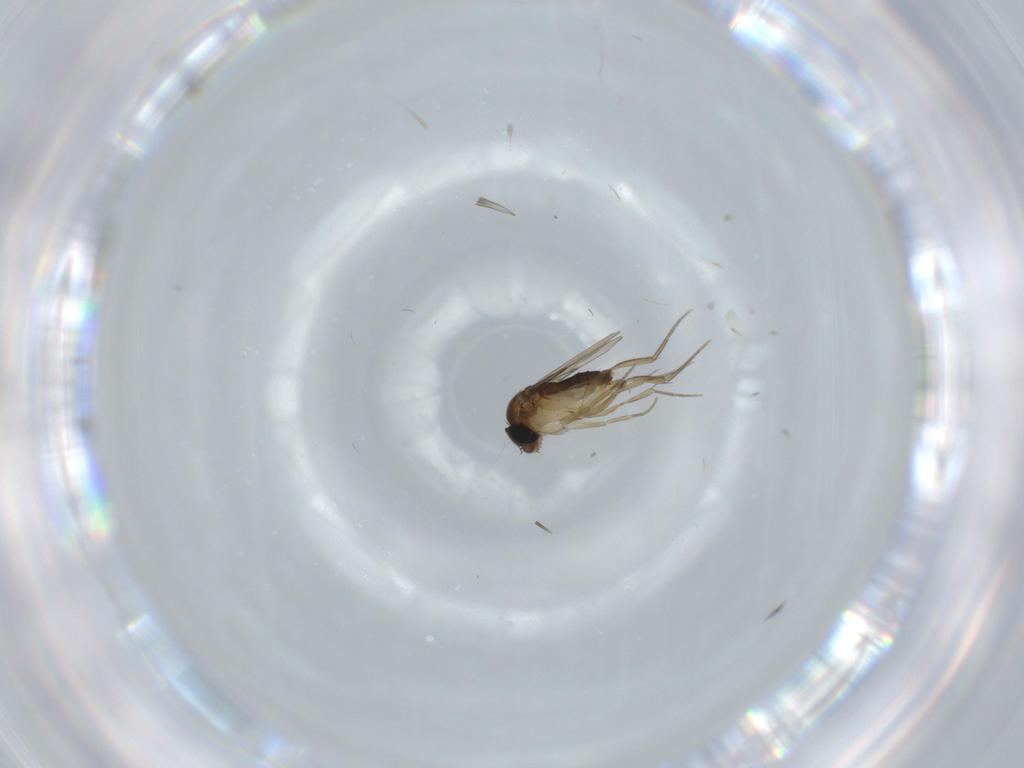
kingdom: Animalia
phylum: Arthropoda
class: Insecta
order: Diptera
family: Phoridae
